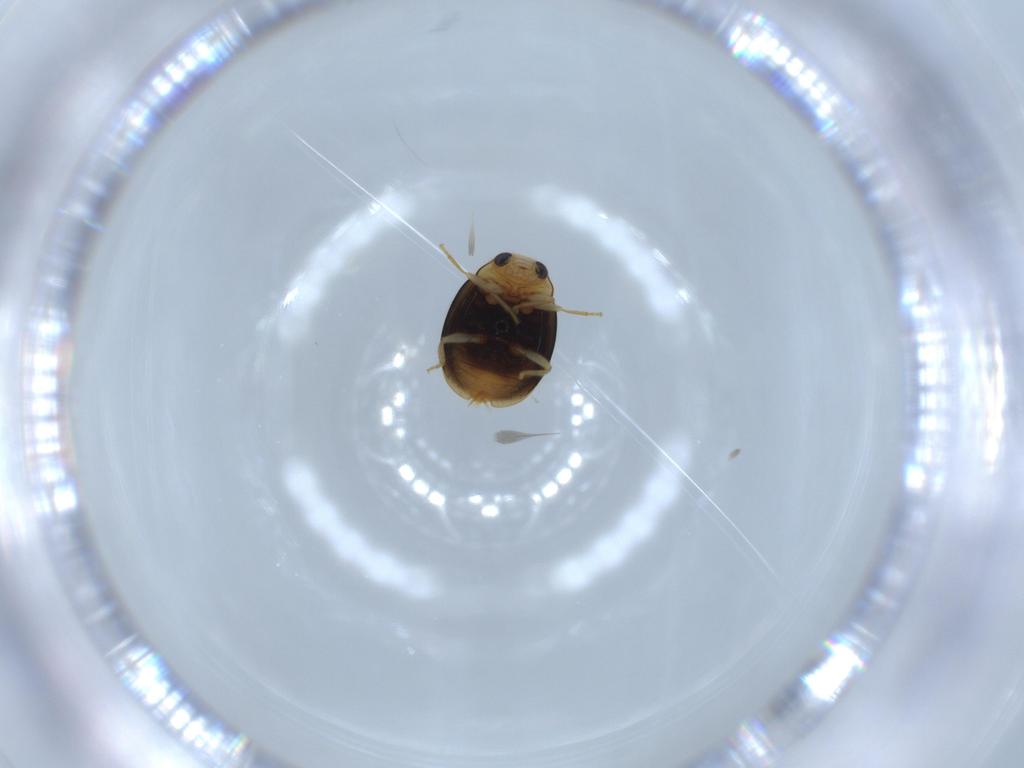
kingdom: Animalia
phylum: Arthropoda
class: Insecta
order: Coleoptera
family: Coccinellidae
